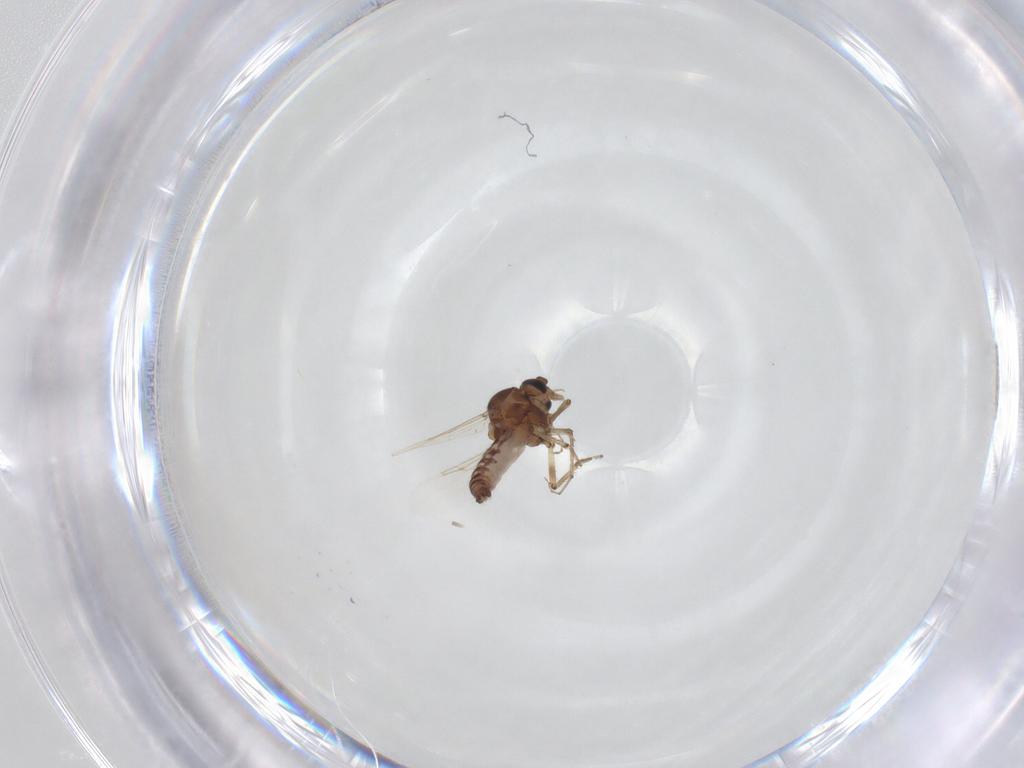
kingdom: Animalia
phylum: Arthropoda
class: Insecta
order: Diptera
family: Ceratopogonidae
